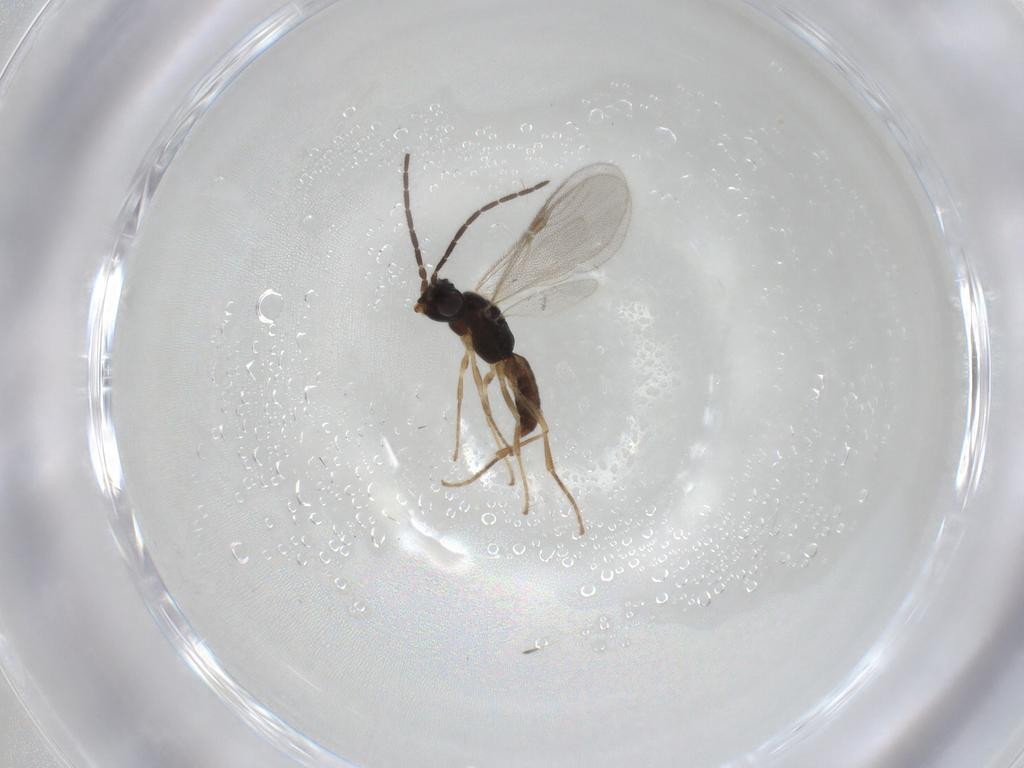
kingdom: Animalia
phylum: Arthropoda
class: Insecta
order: Hymenoptera
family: Dryinidae
